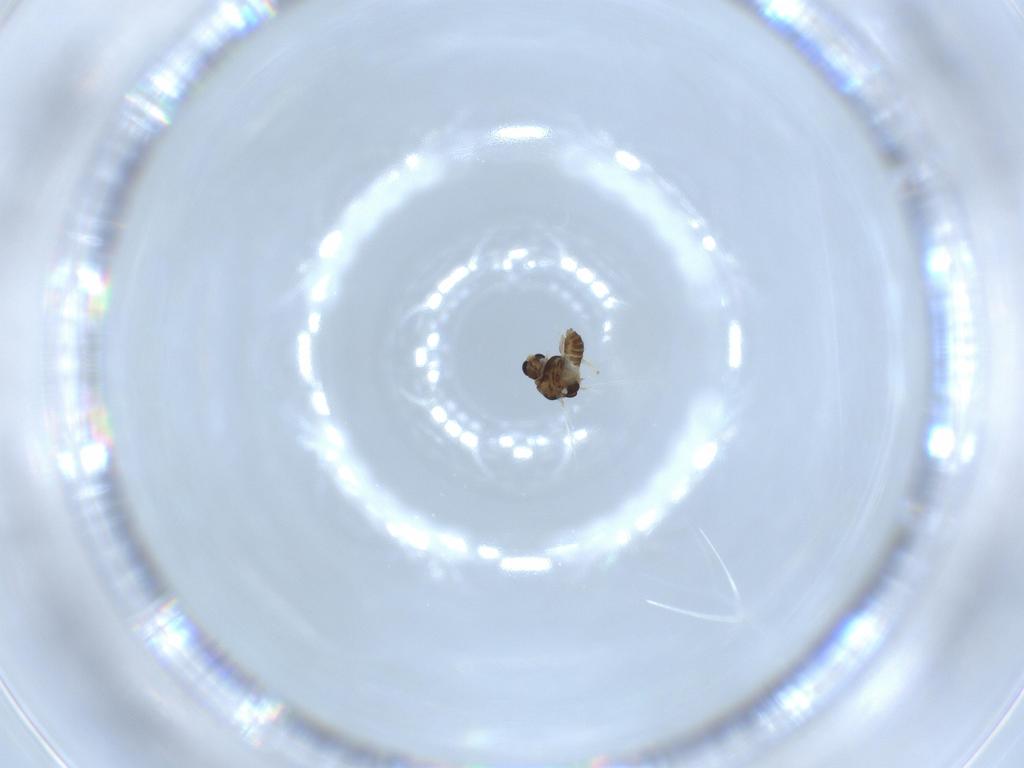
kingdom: Animalia
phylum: Arthropoda
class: Insecta
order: Diptera
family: Chironomidae
